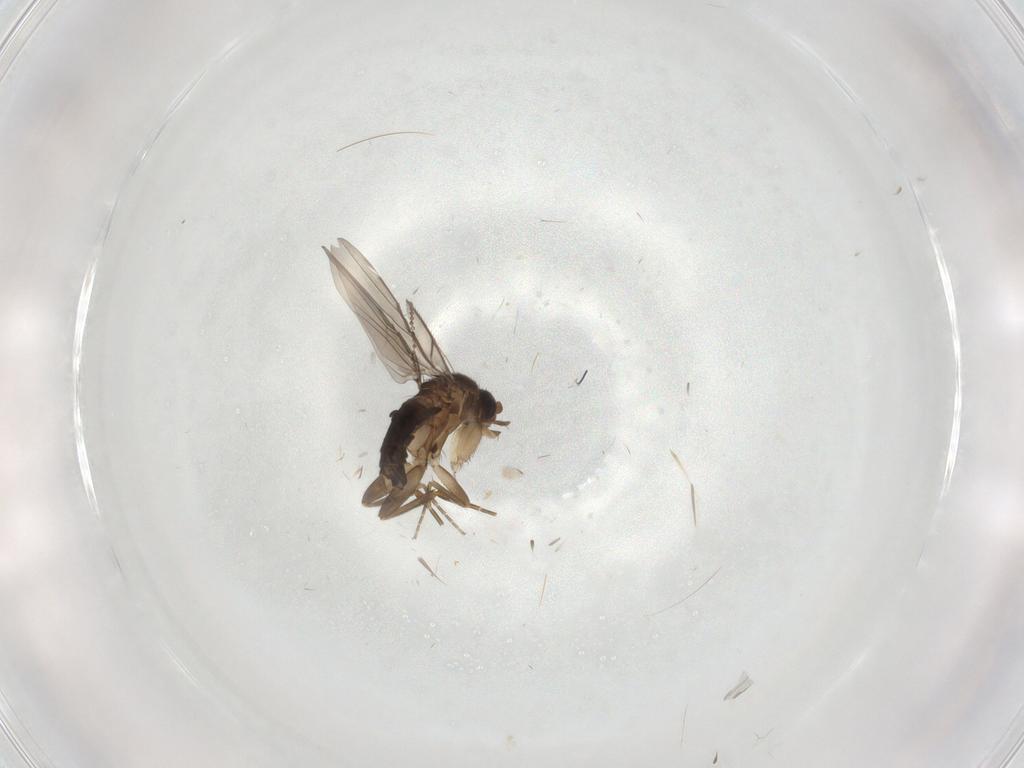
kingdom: Animalia
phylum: Arthropoda
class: Insecta
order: Diptera
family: Cecidomyiidae
